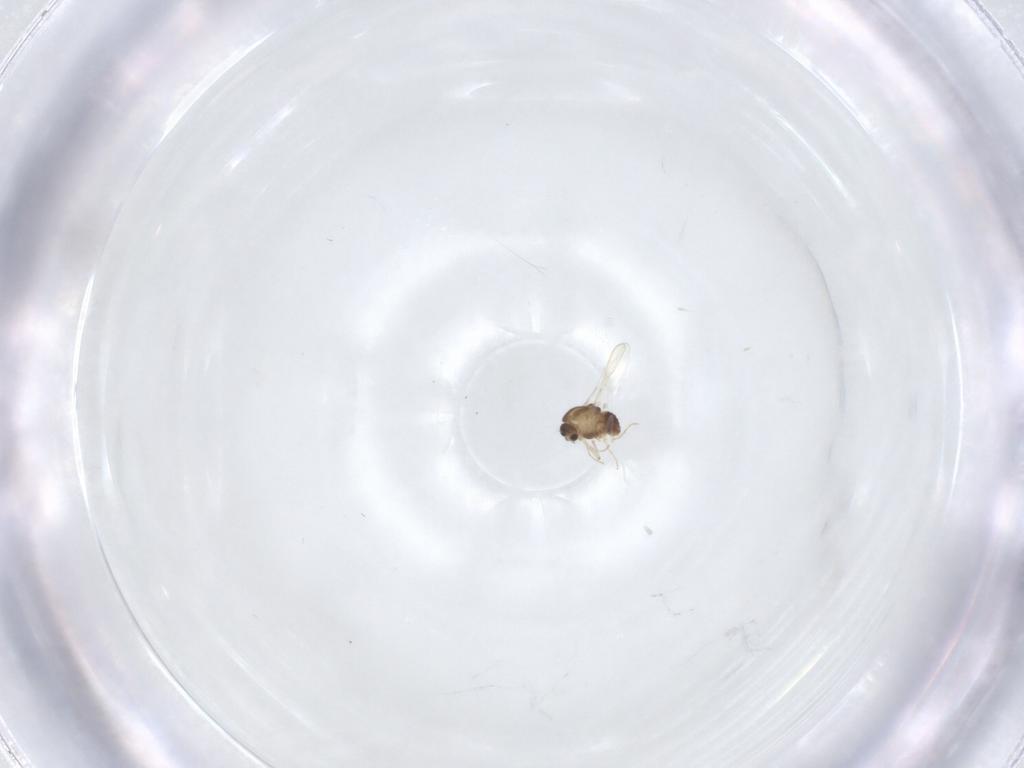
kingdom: Animalia
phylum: Arthropoda
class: Insecta
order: Diptera
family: Chironomidae
